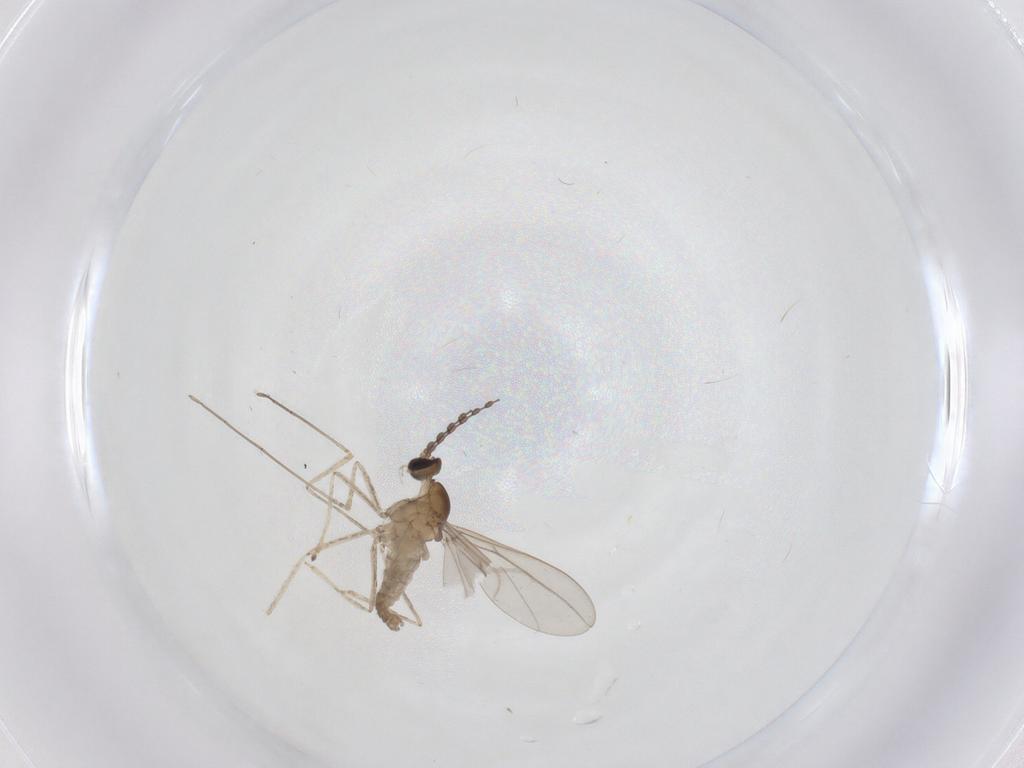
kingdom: Animalia
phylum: Arthropoda
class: Insecta
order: Diptera
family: Cecidomyiidae
